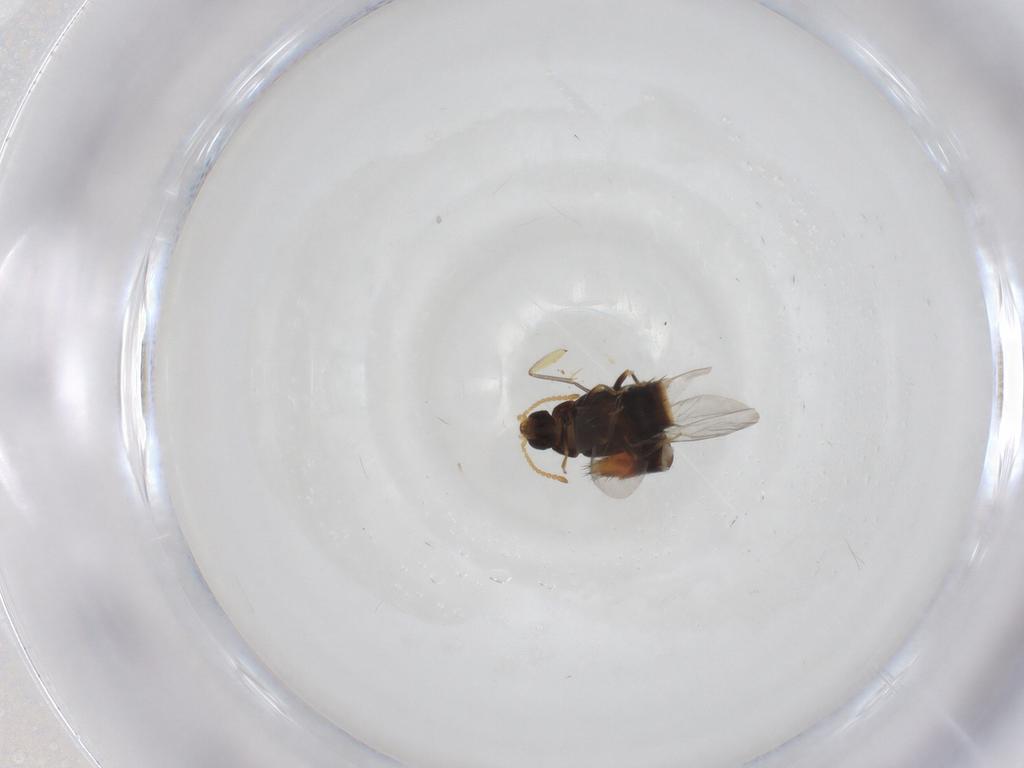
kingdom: Animalia
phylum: Arthropoda
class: Insecta
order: Coleoptera
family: Staphylinidae
